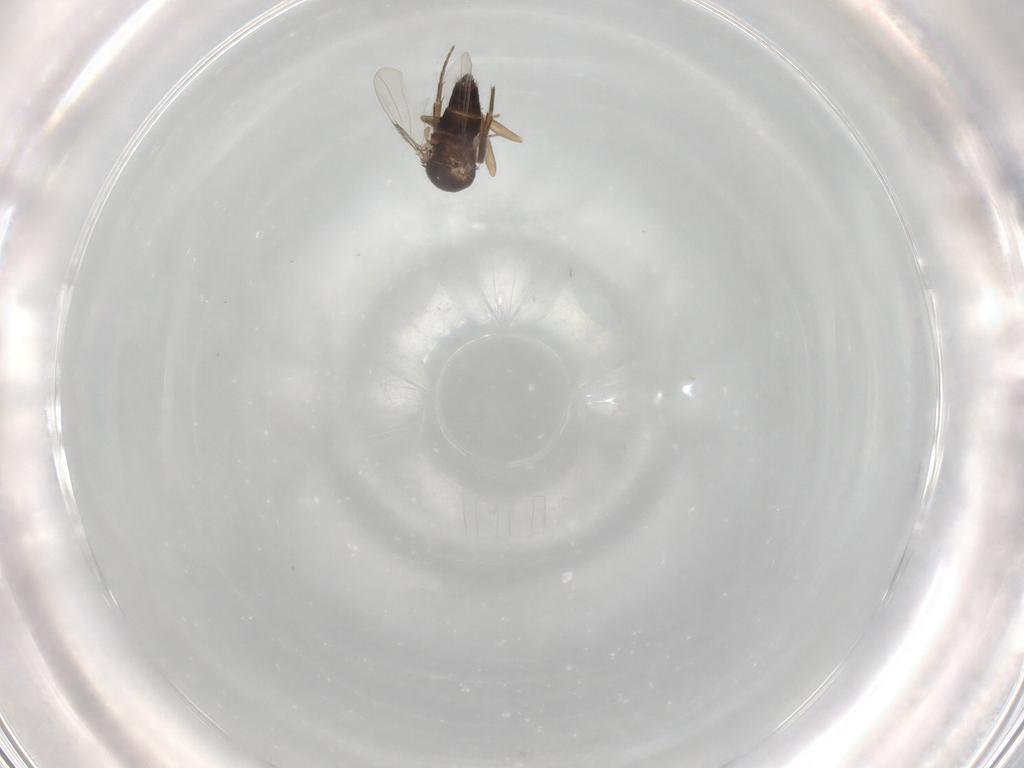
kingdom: Animalia
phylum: Arthropoda
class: Insecta
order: Diptera
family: Phoridae
